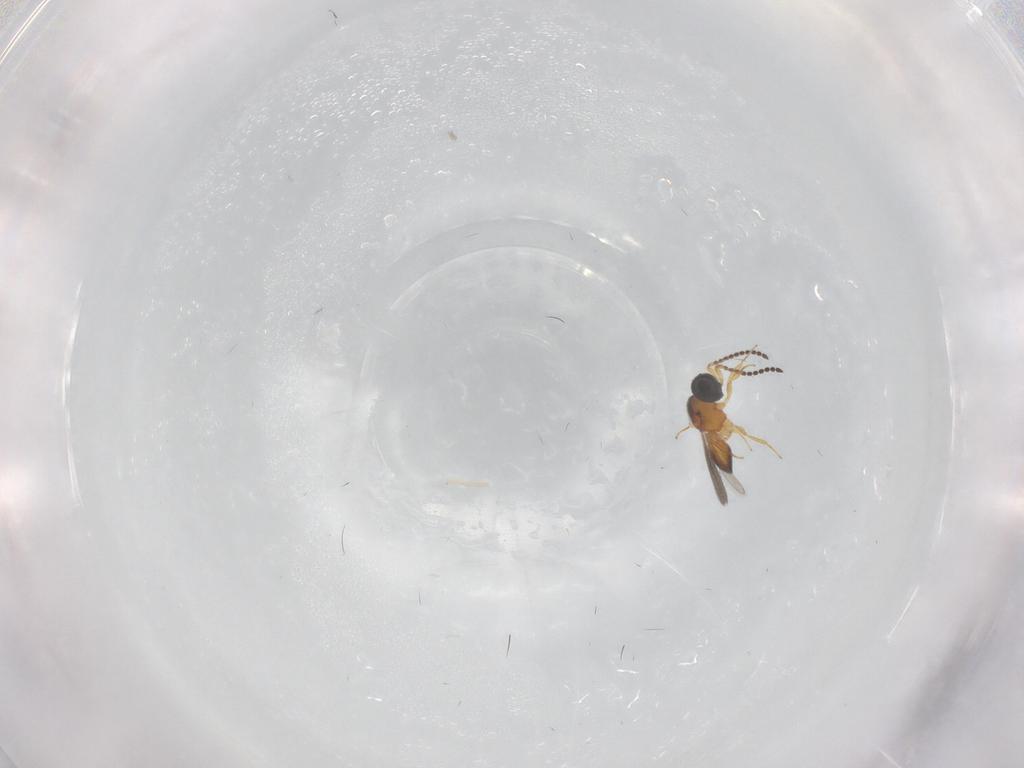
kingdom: Animalia
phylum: Arthropoda
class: Insecta
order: Hymenoptera
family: Scelionidae
